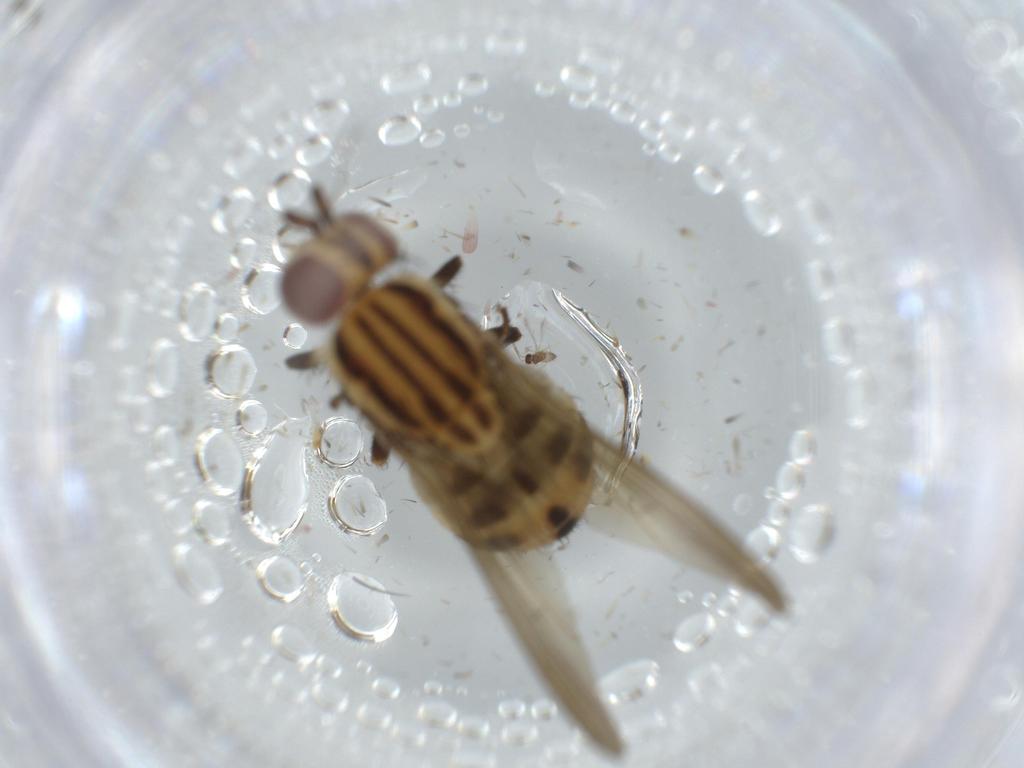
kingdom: Animalia
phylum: Arthropoda
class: Insecta
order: Diptera
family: Lauxaniidae
